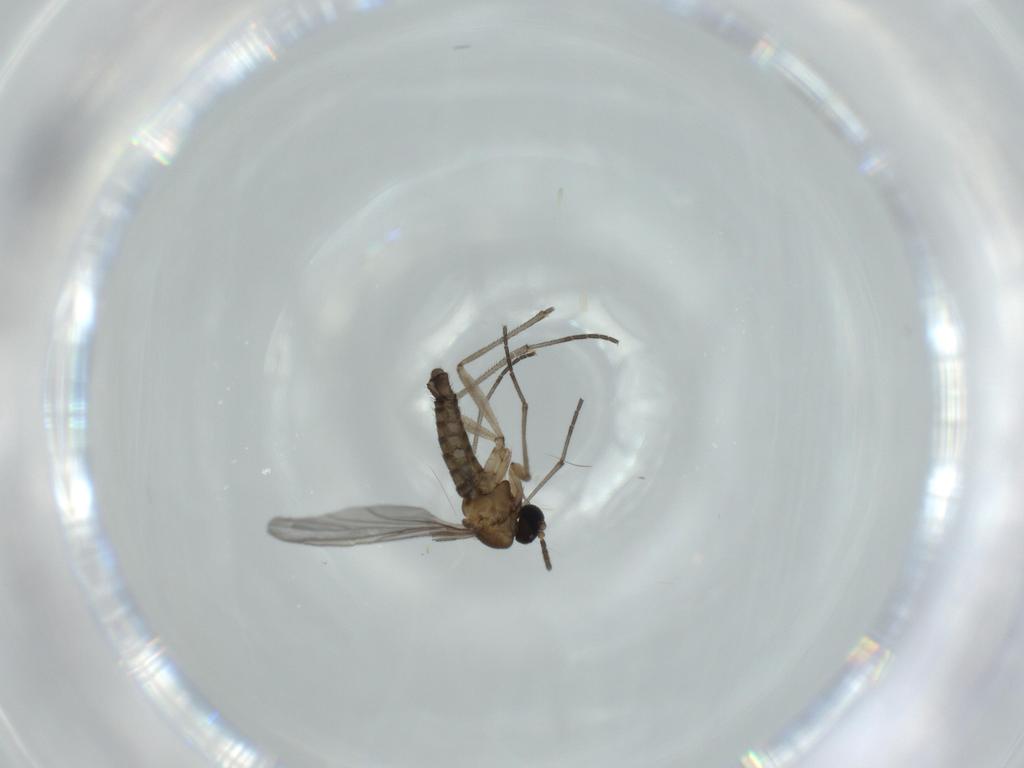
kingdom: Animalia
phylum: Arthropoda
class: Insecta
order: Diptera
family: Sciaridae
